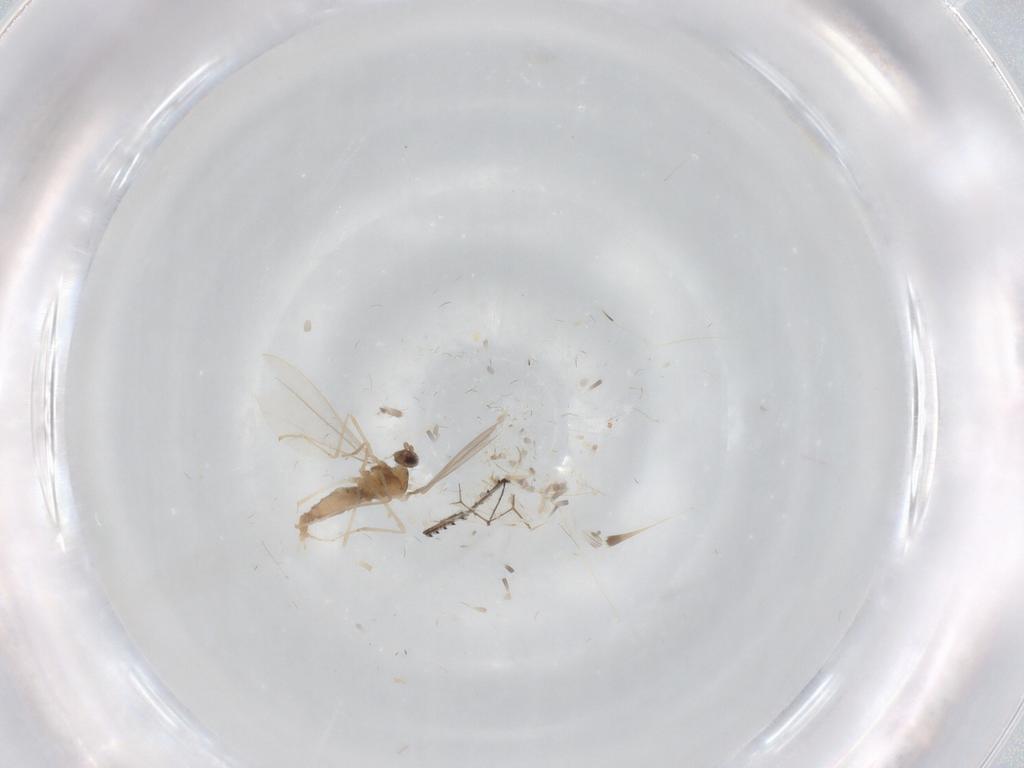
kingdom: Animalia
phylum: Arthropoda
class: Insecta
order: Diptera
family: Cecidomyiidae
